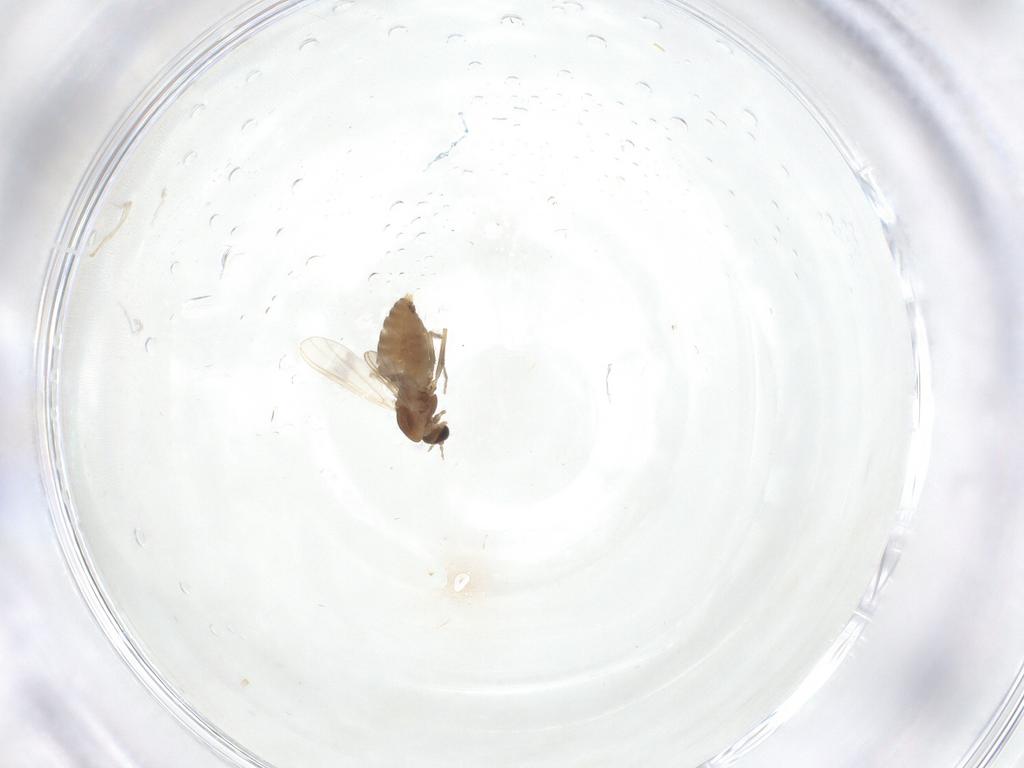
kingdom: Animalia
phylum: Arthropoda
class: Insecta
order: Diptera
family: Chironomidae
